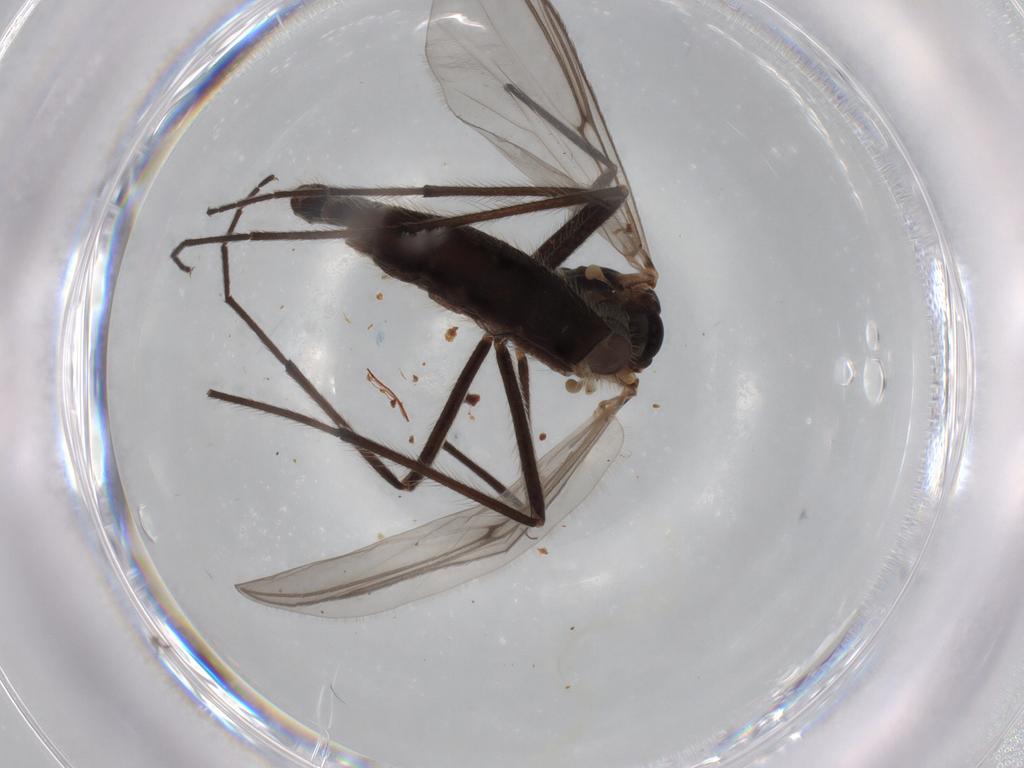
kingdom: Animalia
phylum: Arthropoda
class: Insecta
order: Diptera
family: Chironomidae
